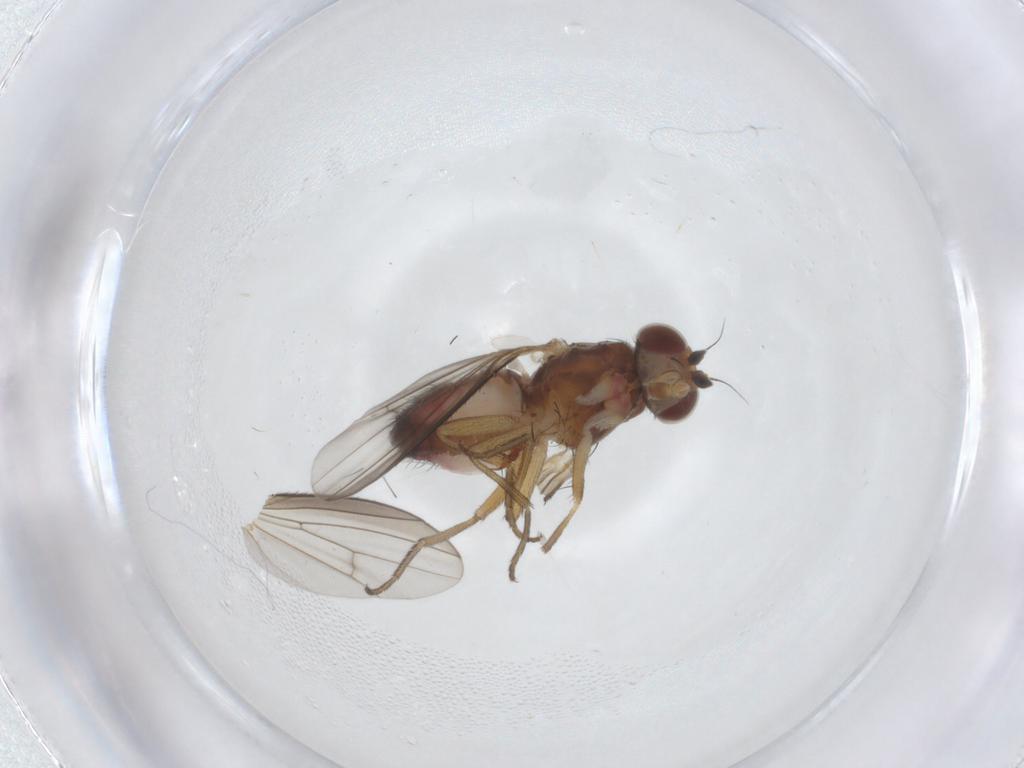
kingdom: Animalia
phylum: Arthropoda
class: Insecta
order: Diptera
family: Heleomyzidae
